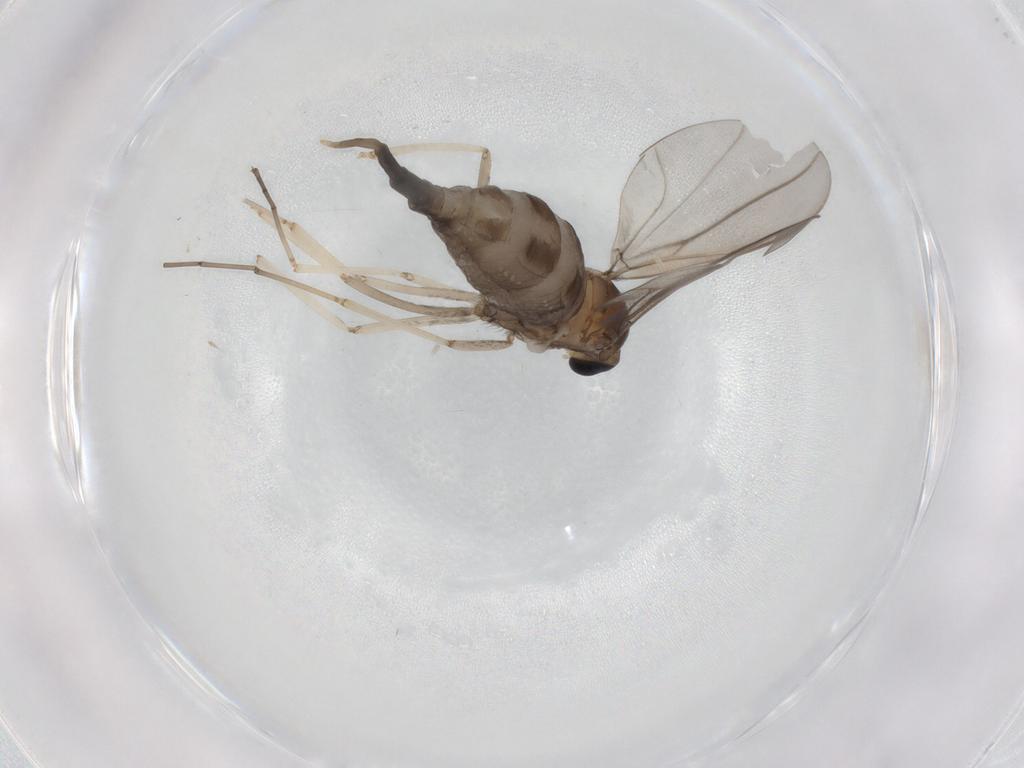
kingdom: Animalia
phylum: Arthropoda
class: Insecta
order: Diptera
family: Cecidomyiidae
